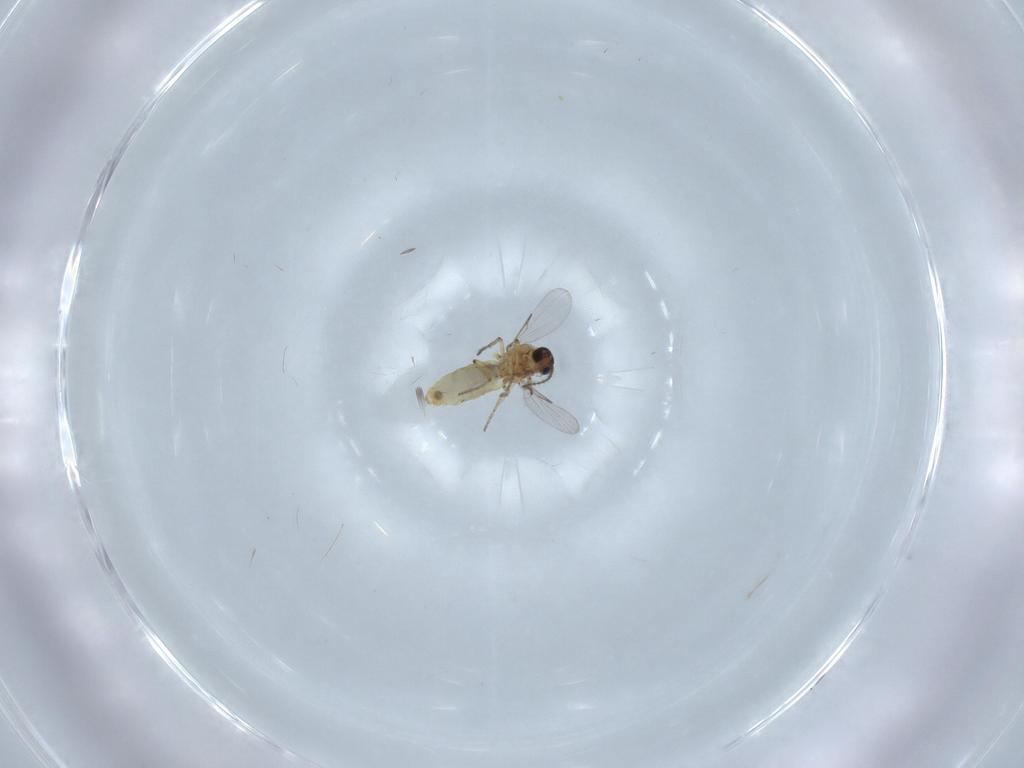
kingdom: Animalia
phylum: Arthropoda
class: Insecta
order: Diptera
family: Ceratopogonidae
